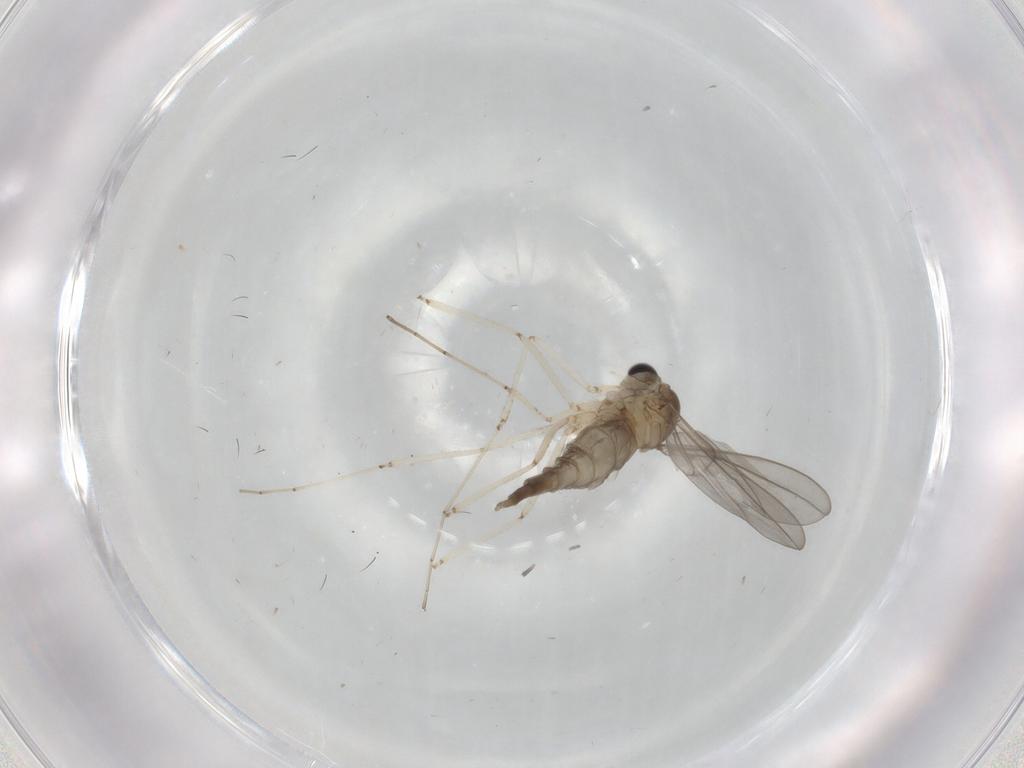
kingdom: Animalia
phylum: Arthropoda
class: Insecta
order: Diptera
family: Cecidomyiidae
